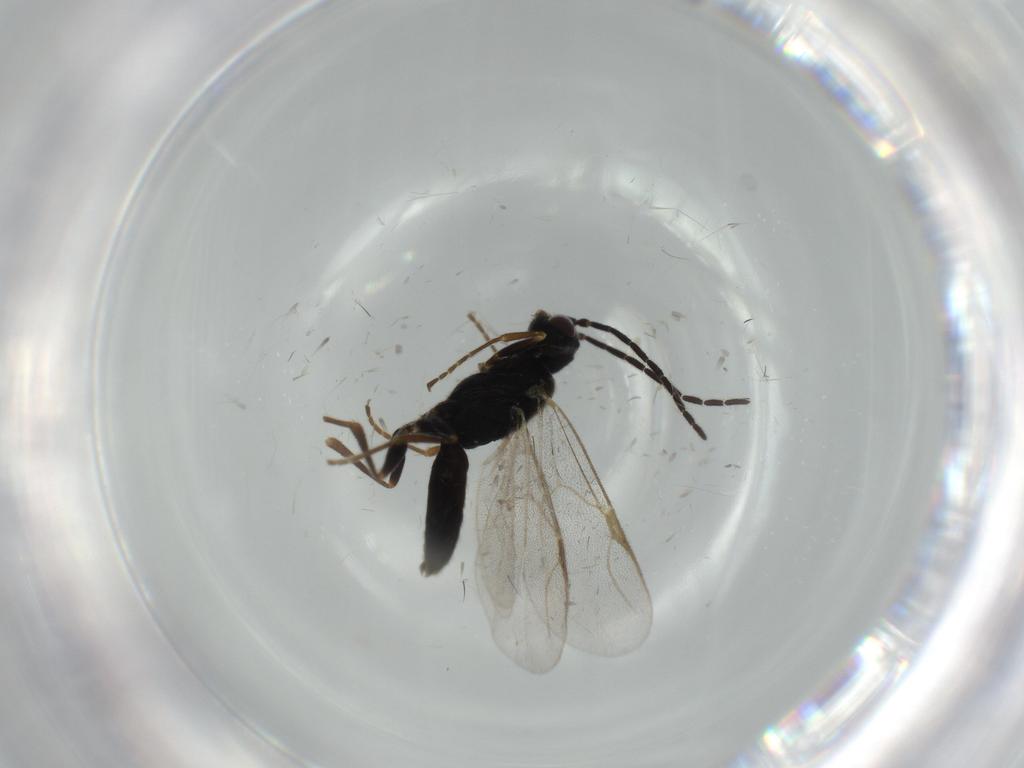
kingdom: Animalia
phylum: Arthropoda
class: Insecta
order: Hymenoptera
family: Dryinidae
